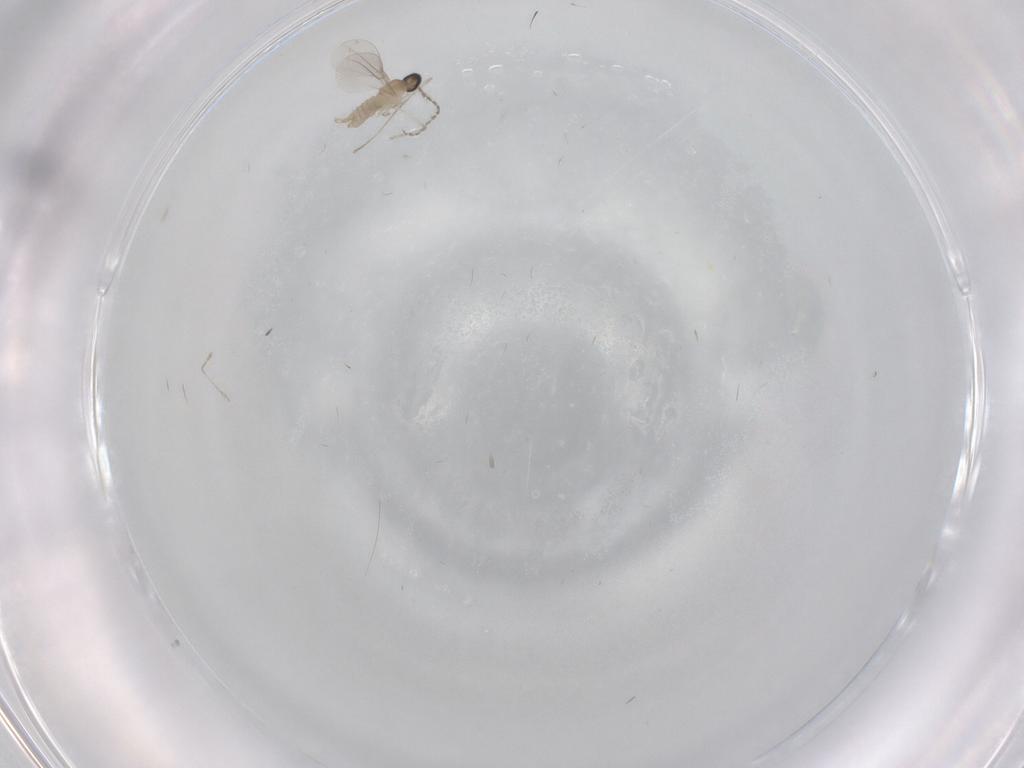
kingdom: Animalia
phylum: Arthropoda
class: Insecta
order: Diptera
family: Cecidomyiidae
